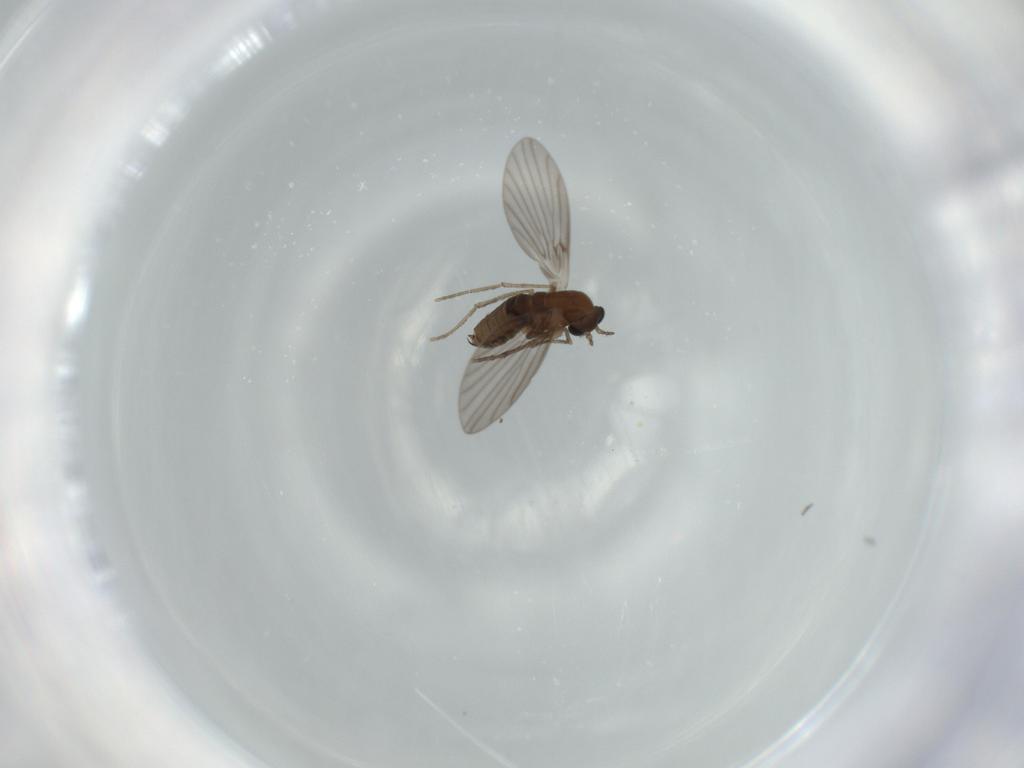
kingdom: Animalia
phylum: Arthropoda
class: Insecta
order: Diptera
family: Psychodidae
